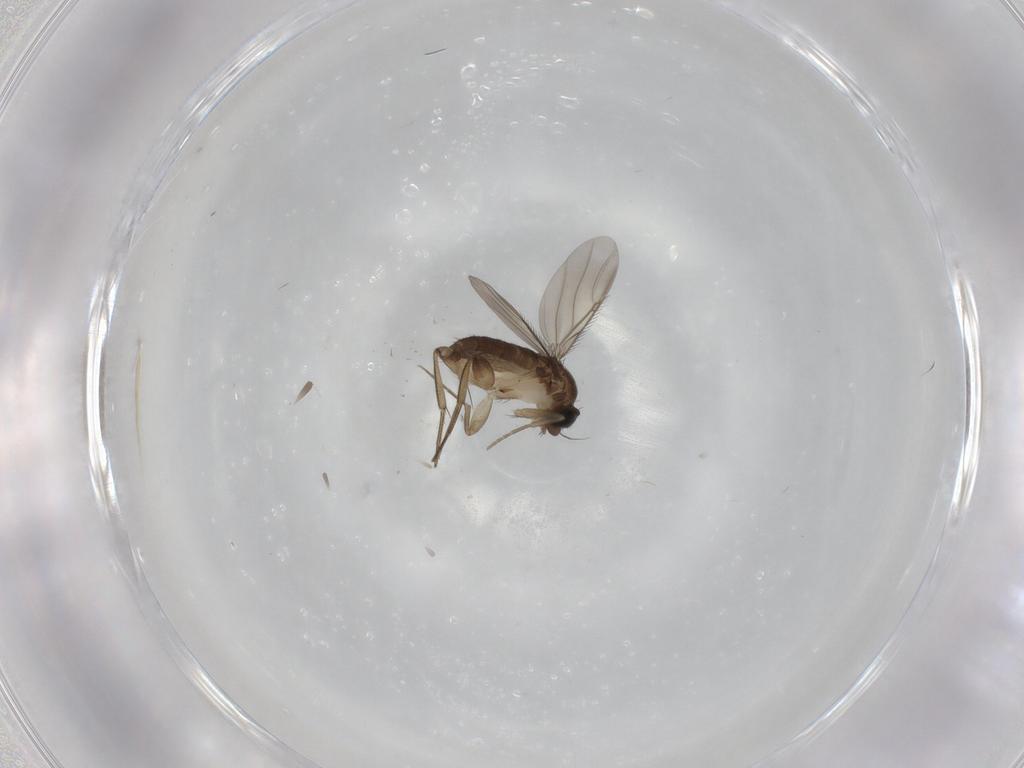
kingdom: Animalia
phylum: Arthropoda
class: Insecta
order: Diptera
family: Phoridae
